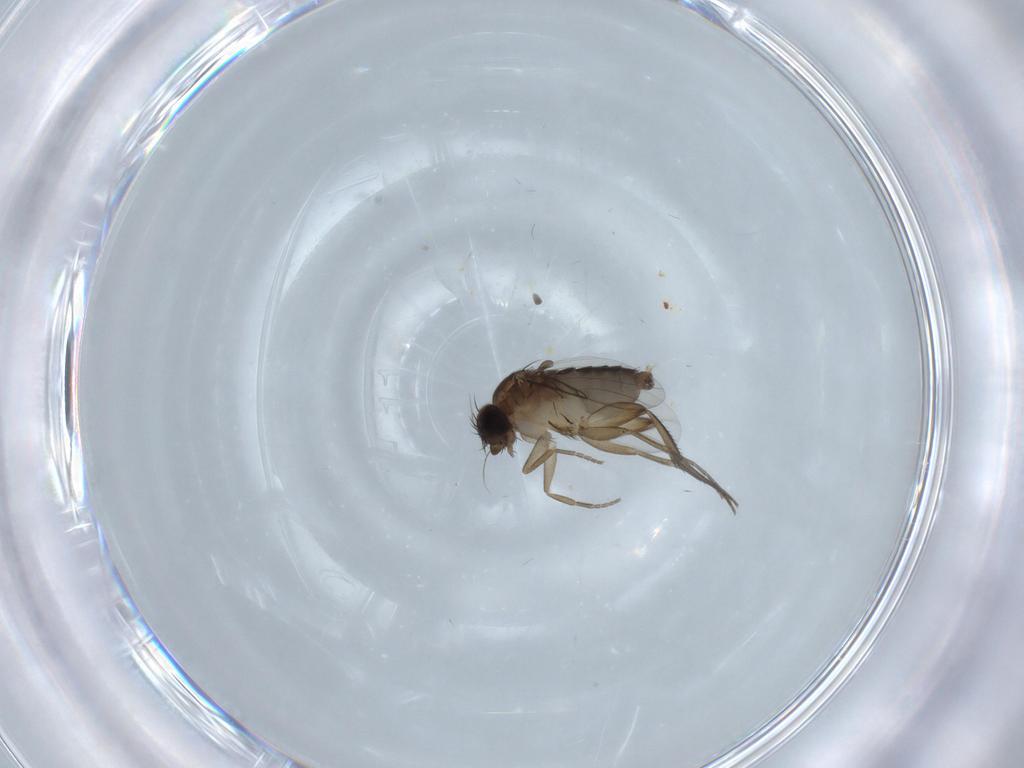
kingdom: Animalia
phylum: Arthropoda
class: Insecta
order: Diptera
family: Phoridae
